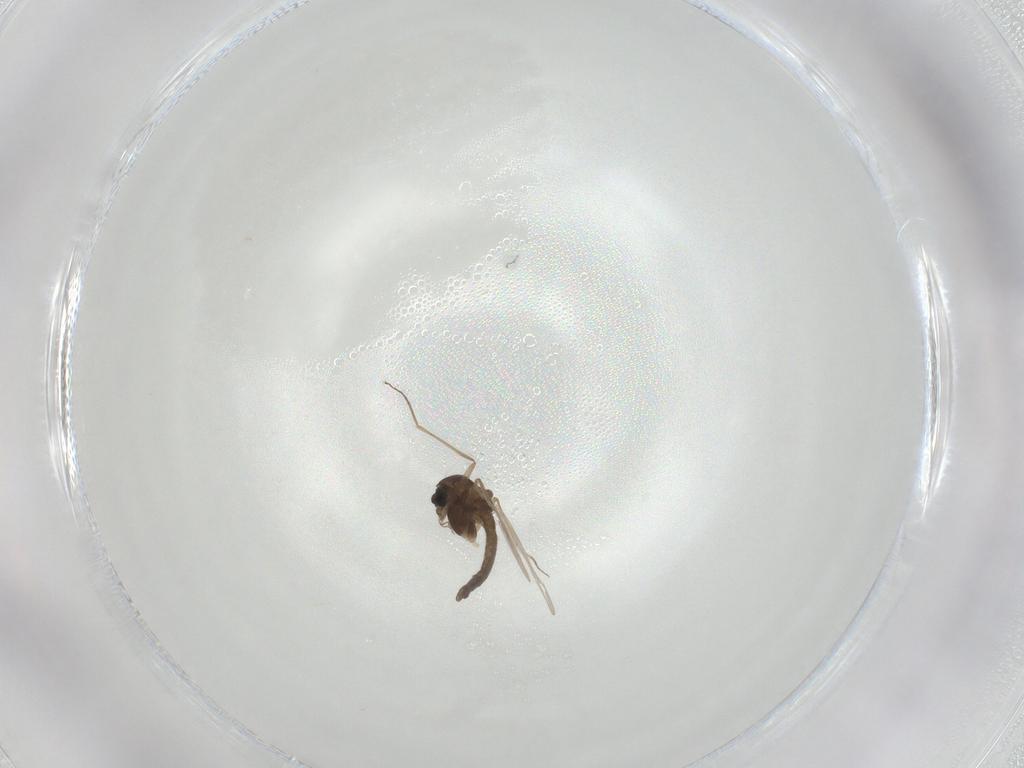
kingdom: Animalia
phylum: Arthropoda
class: Insecta
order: Diptera
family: Chironomidae
